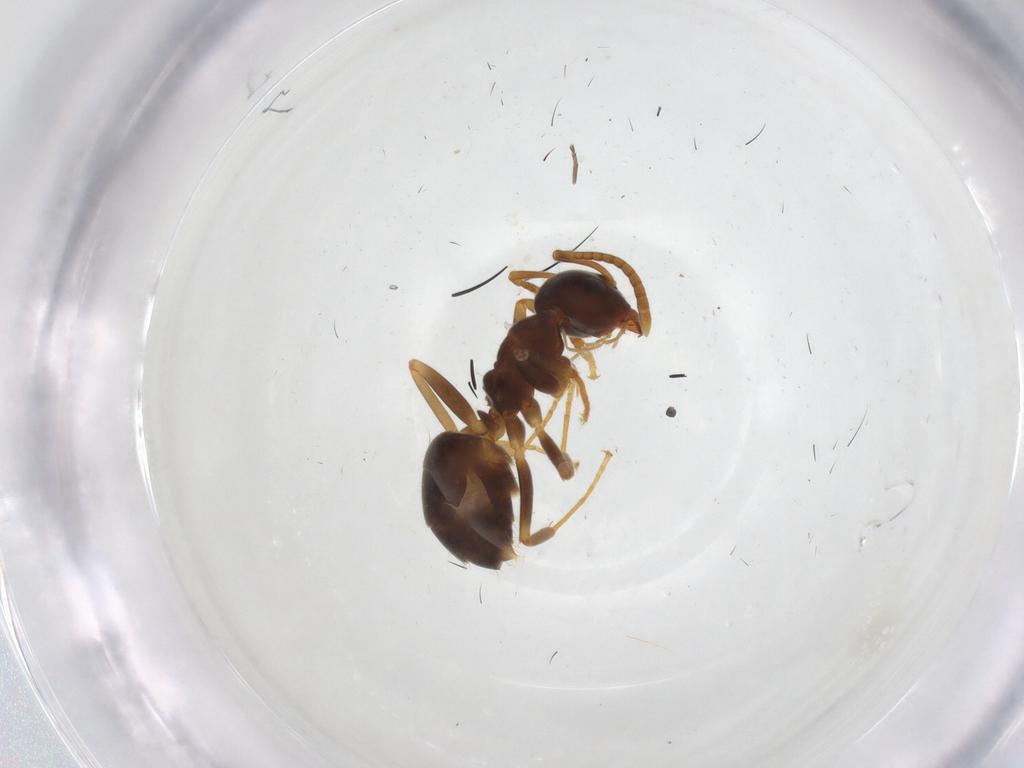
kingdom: Animalia
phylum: Arthropoda
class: Insecta
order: Hymenoptera
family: Formicidae
